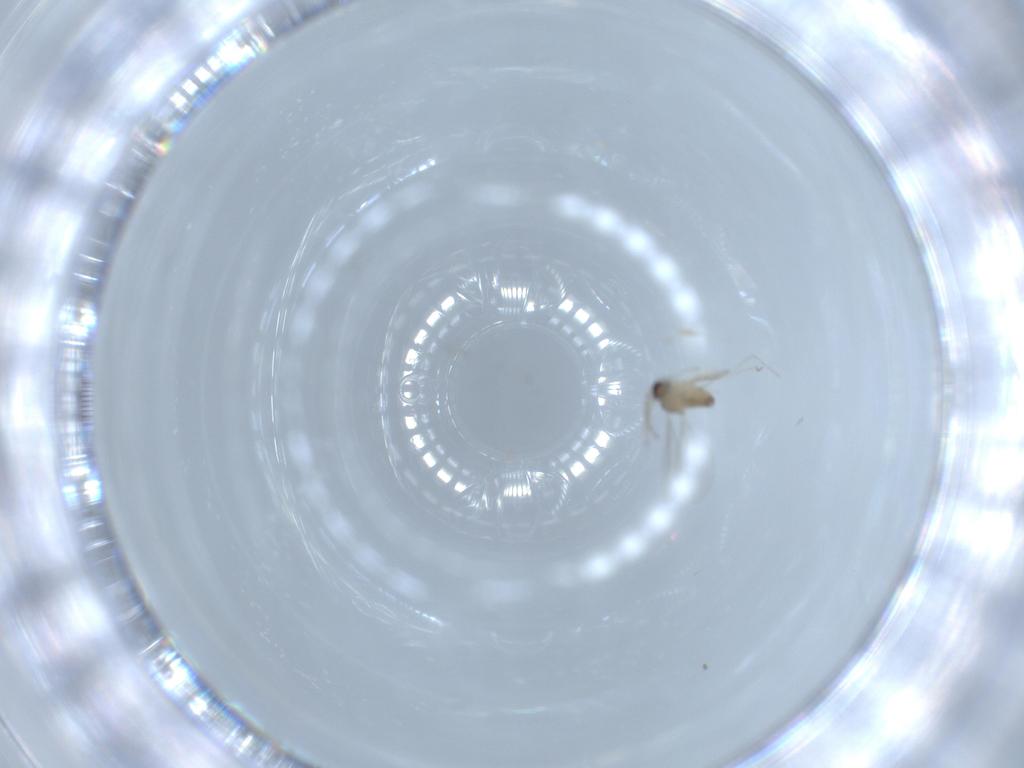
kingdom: Animalia
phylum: Arthropoda
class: Insecta
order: Diptera
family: Cecidomyiidae
